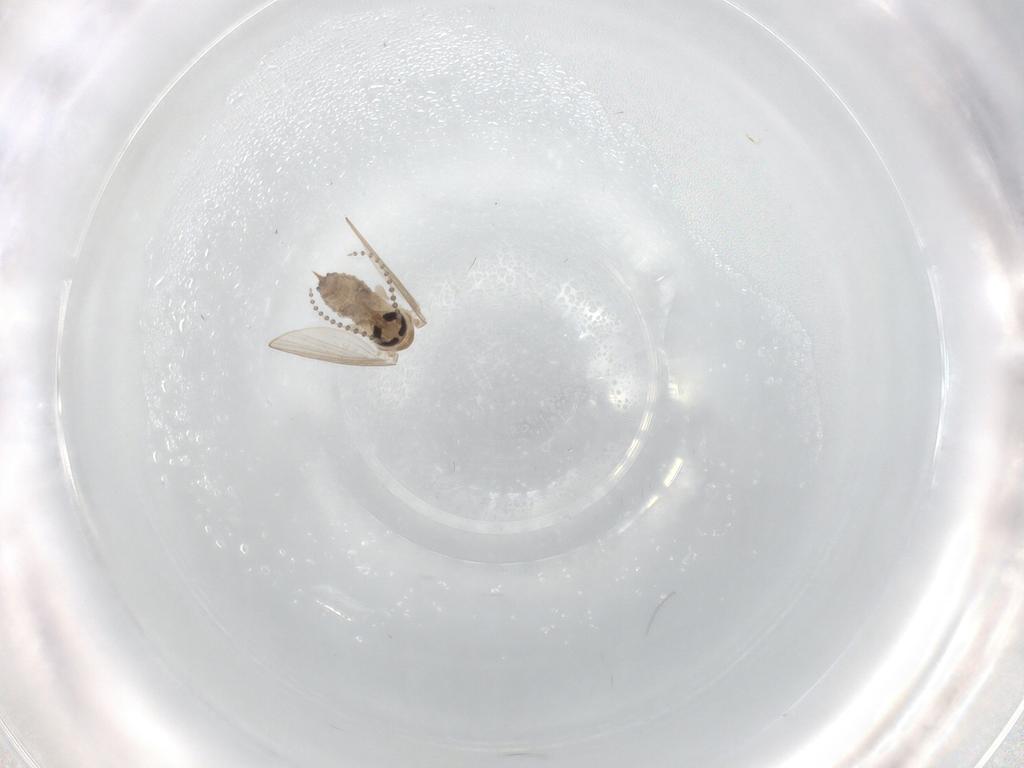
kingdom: Animalia
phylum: Arthropoda
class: Insecta
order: Diptera
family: Psychodidae
